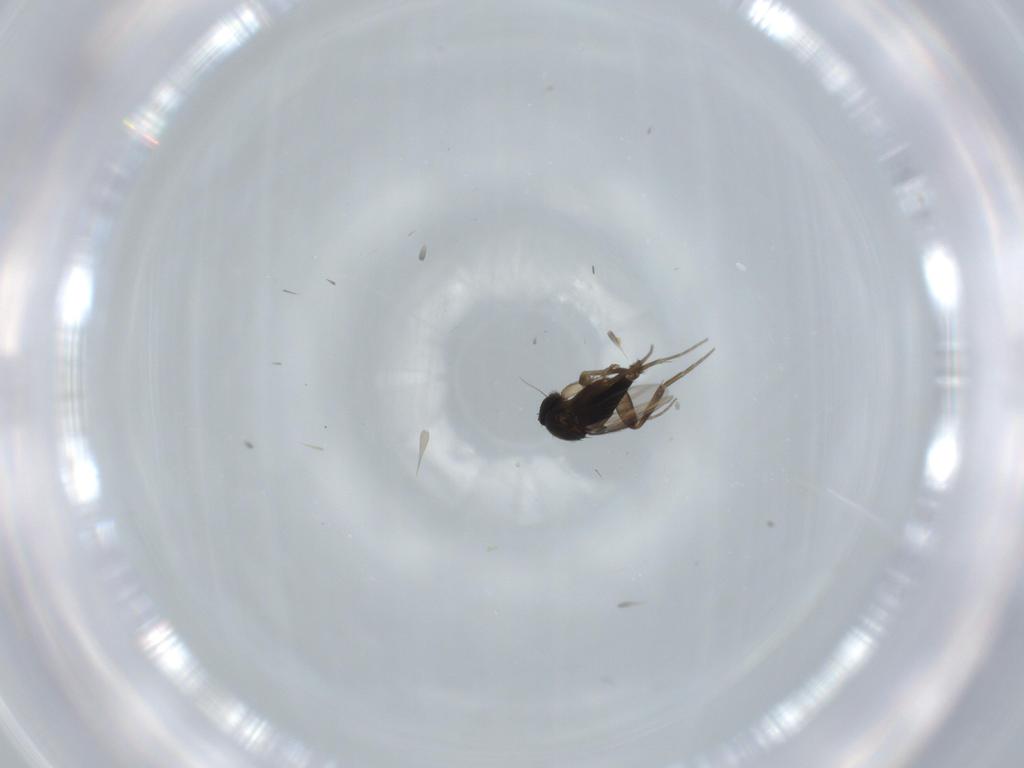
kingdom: Animalia
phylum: Arthropoda
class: Insecta
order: Diptera
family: Phoridae
